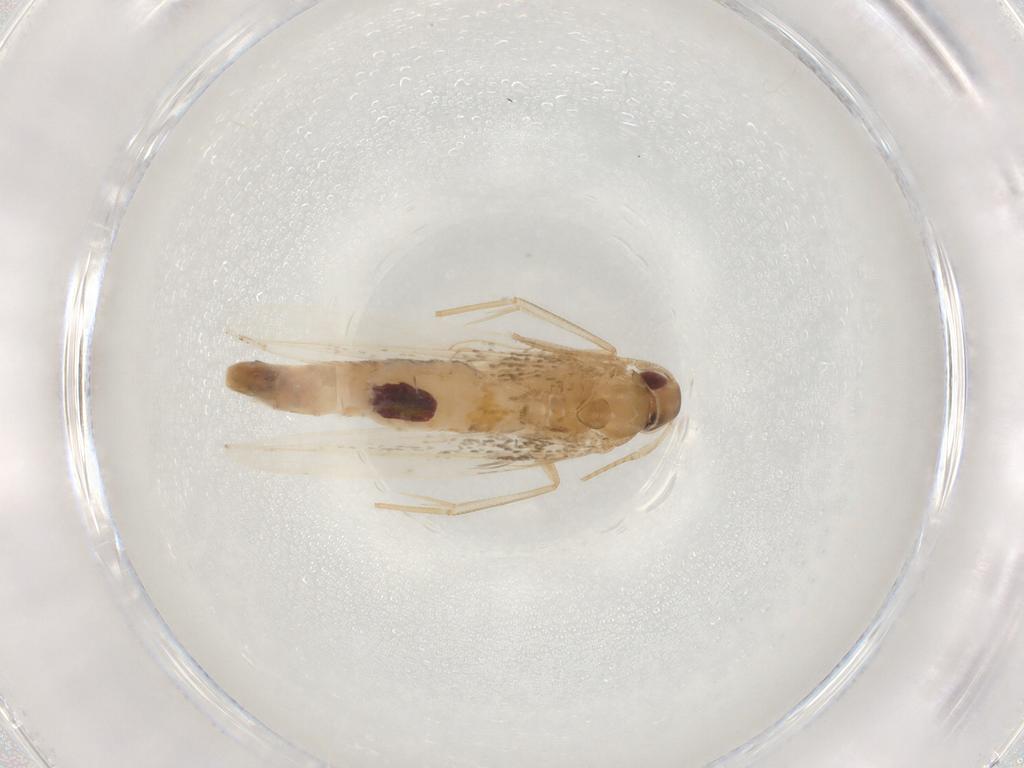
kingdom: Animalia
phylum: Arthropoda
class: Insecta
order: Lepidoptera
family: Cosmopterigidae
